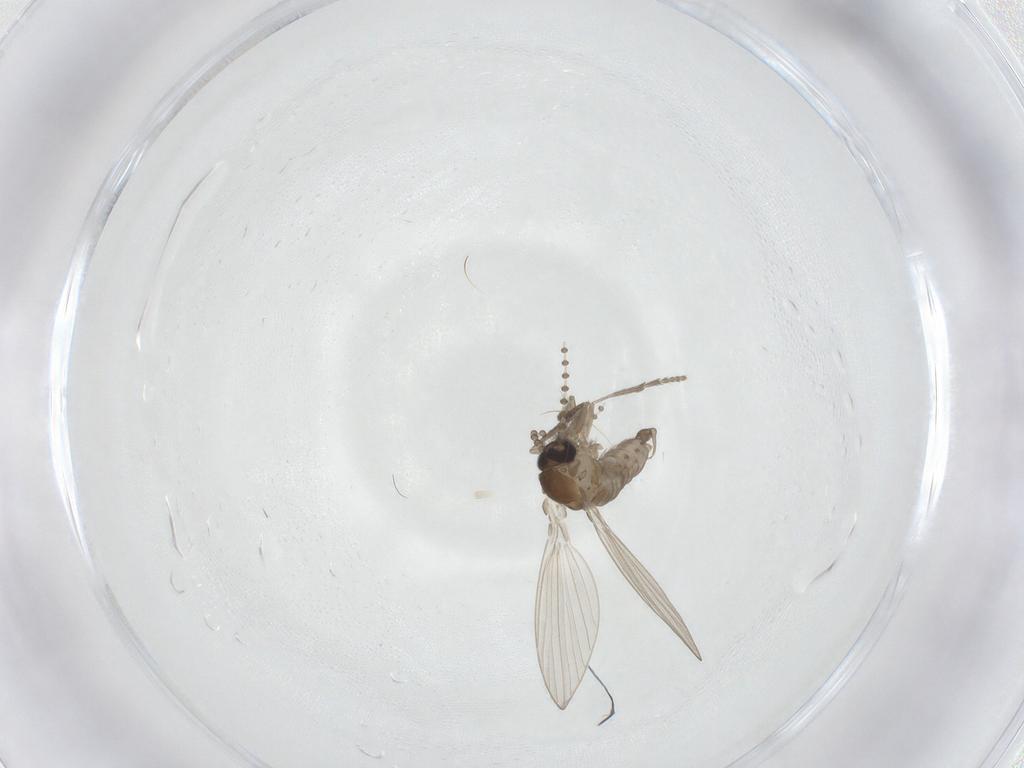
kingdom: Animalia
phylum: Arthropoda
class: Insecta
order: Diptera
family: Psychodidae
